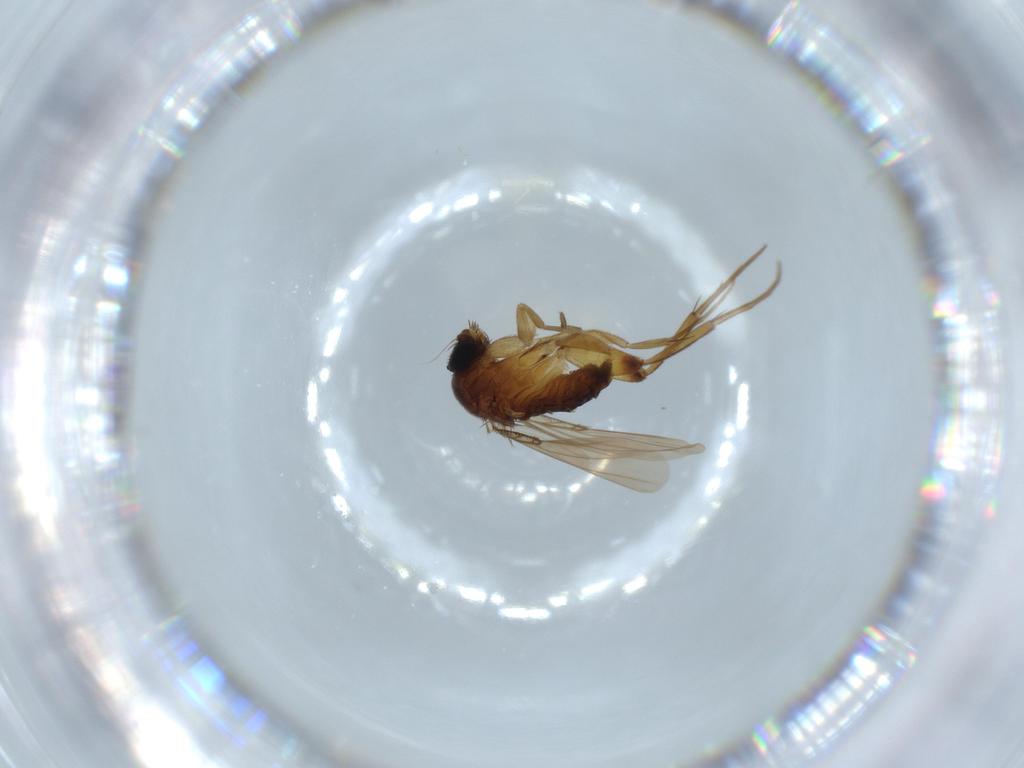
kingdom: Animalia
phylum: Arthropoda
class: Insecta
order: Diptera
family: Phoridae
